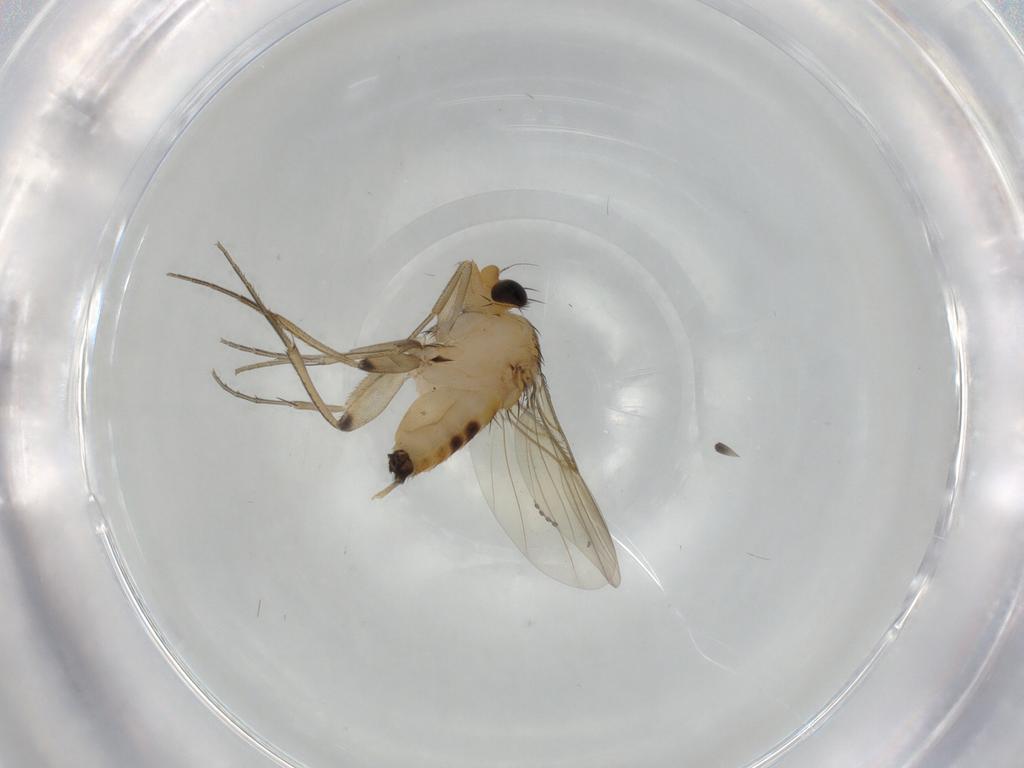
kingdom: Animalia
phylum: Arthropoda
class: Insecta
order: Diptera
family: Phoridae
